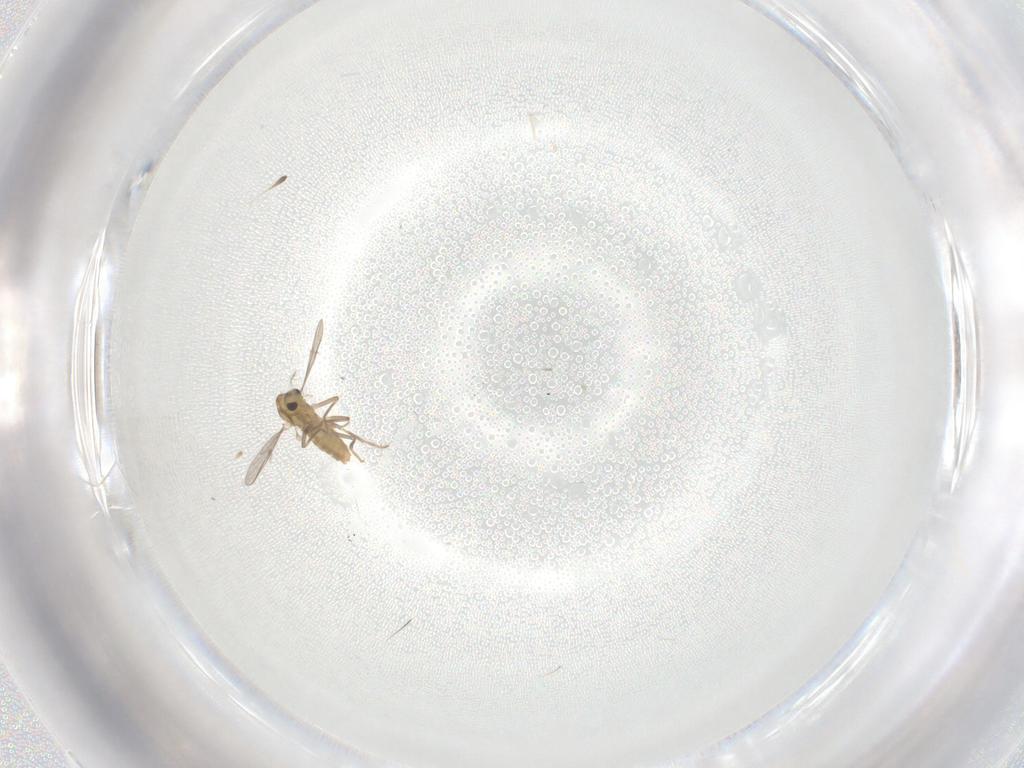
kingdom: Animalia
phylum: Arthropoda
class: Insecta
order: Diptera
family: Chironomidae
